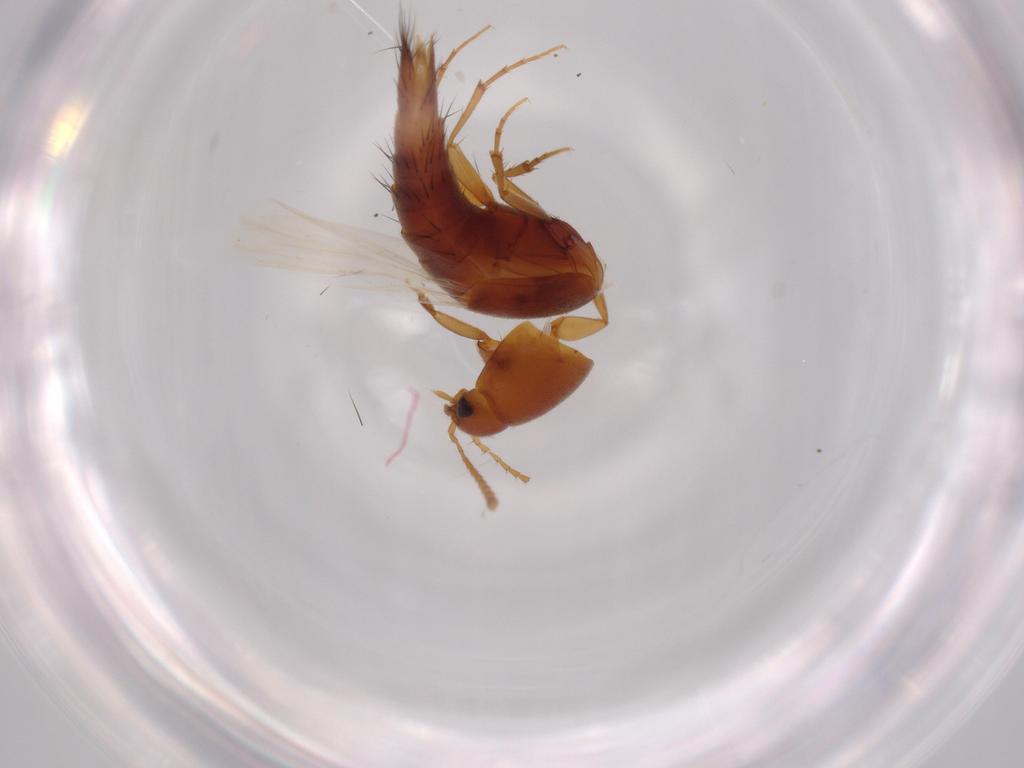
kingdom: Animalia
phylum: Arthropoda
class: Insecta
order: Coleoptera
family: Staphylinidae
